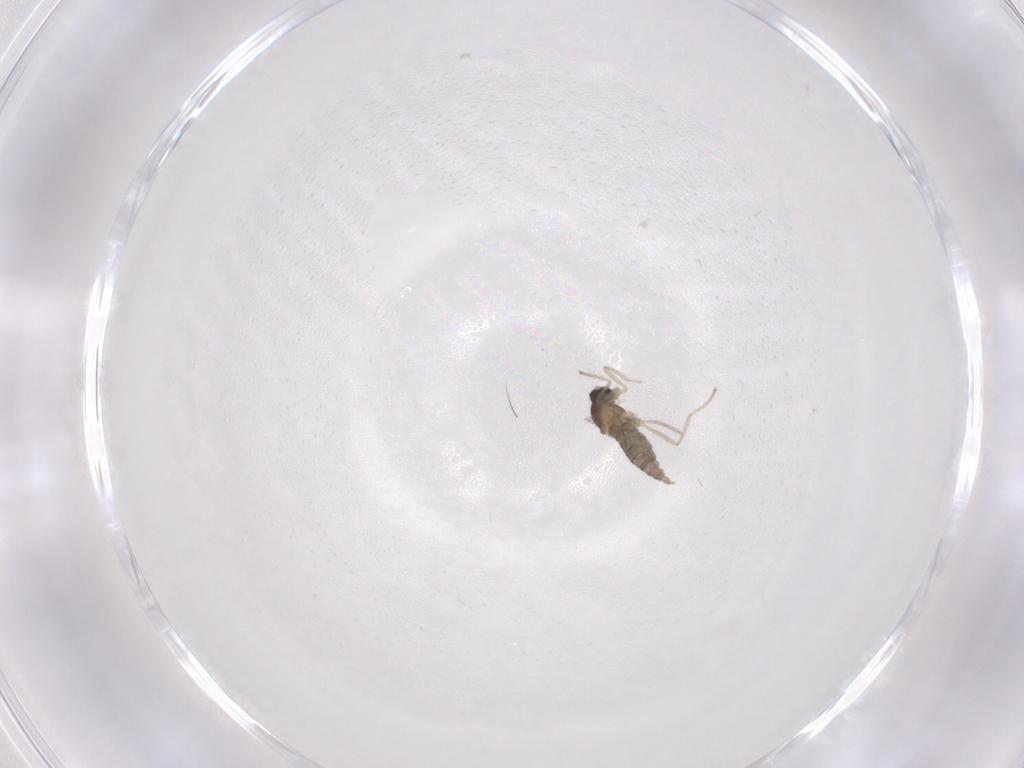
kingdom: Animalia
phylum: Arthropoda
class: Insecta
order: Diptera
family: Cecidomyiidae
